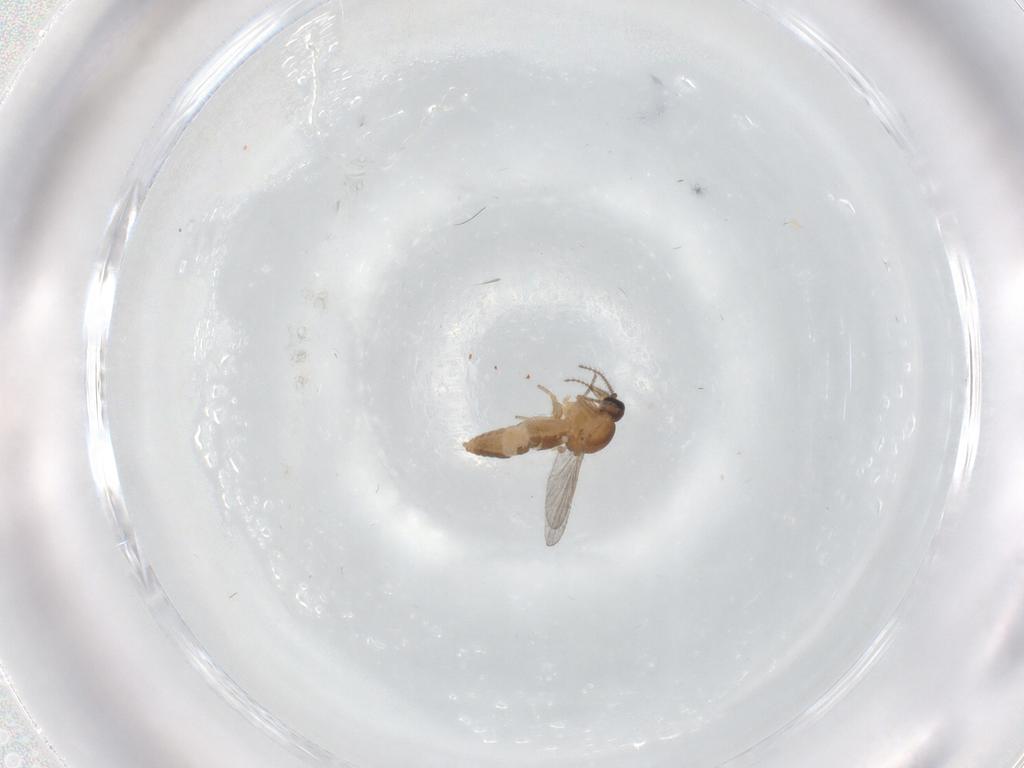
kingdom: Animalia
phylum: Arthropoda
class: Insecta
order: Diptera
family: Ceratopogonidae
